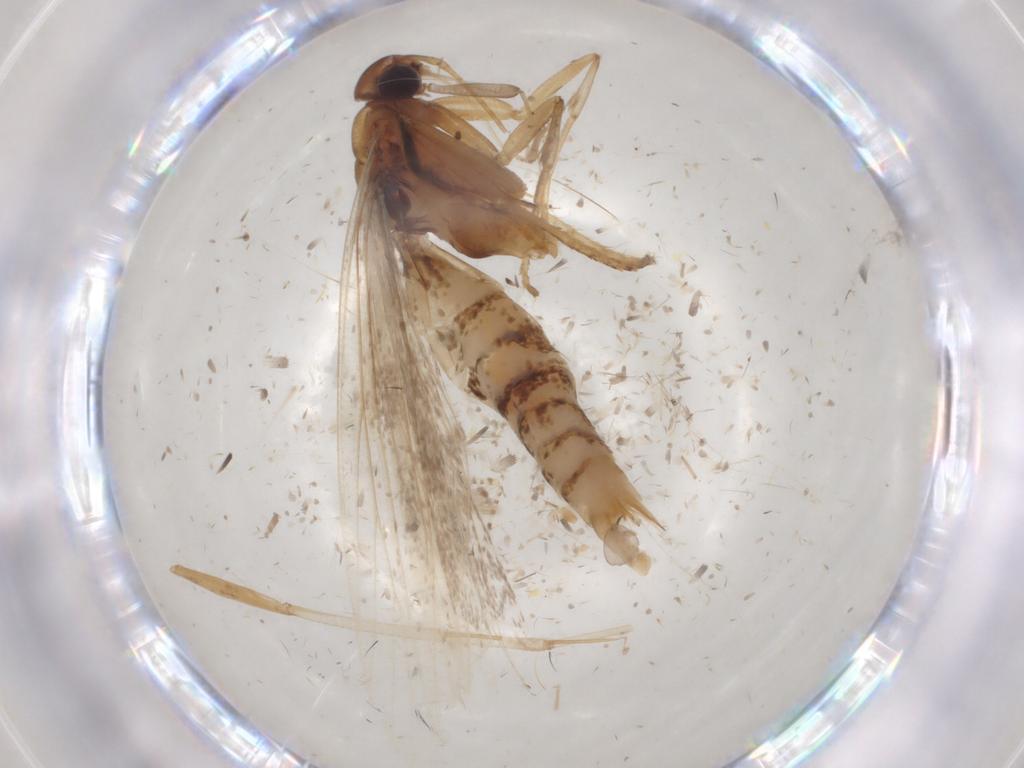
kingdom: Animalia
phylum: Arthropoda
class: Insecta
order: Lepidoptera
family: Gelechiidae
